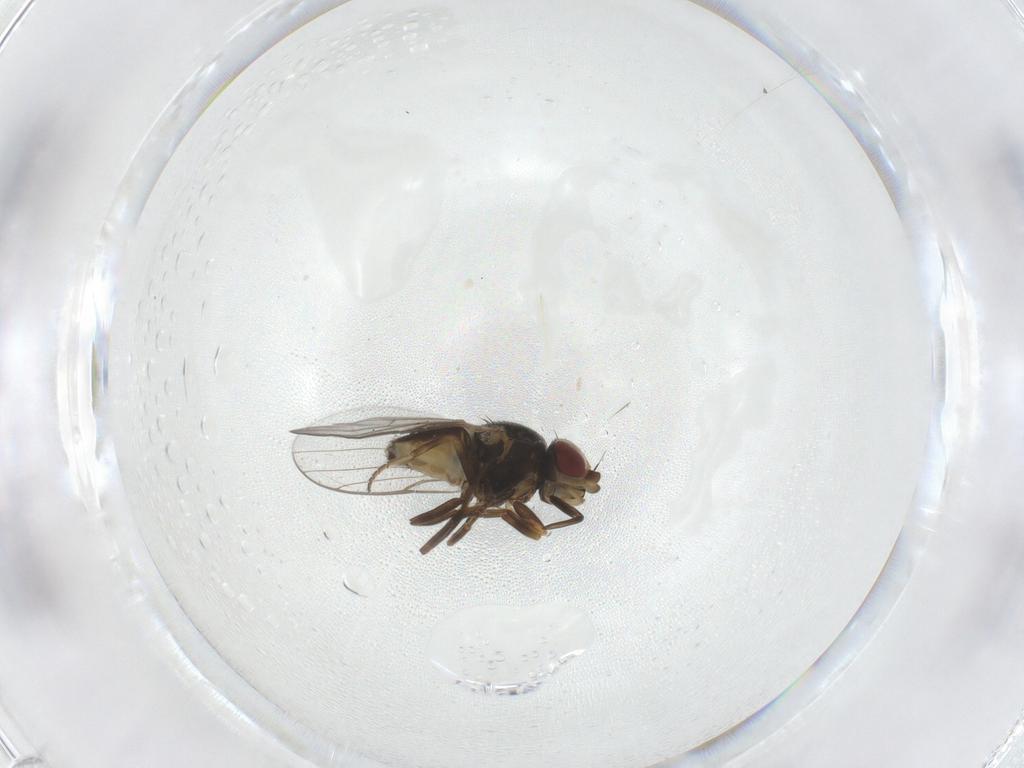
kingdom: Animalia
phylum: Arthropoda
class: Insecta
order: Diptera
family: Chloropidae
